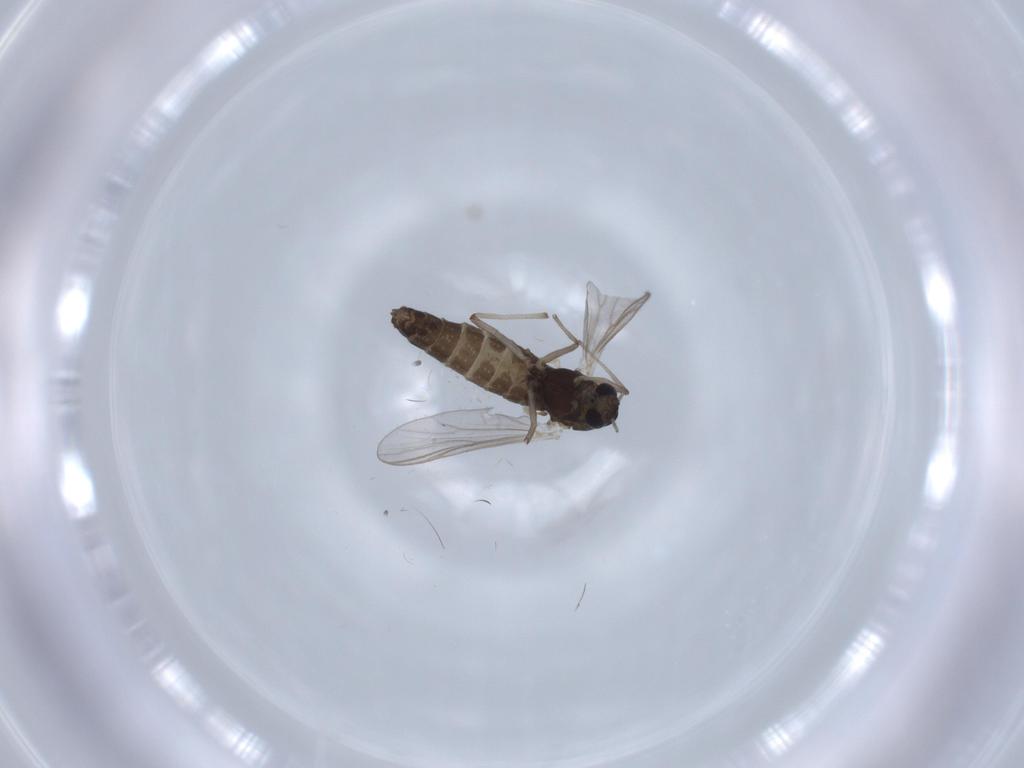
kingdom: Animalia
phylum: Arthropoda
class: Insecta
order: Diptera
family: Chironomidae
